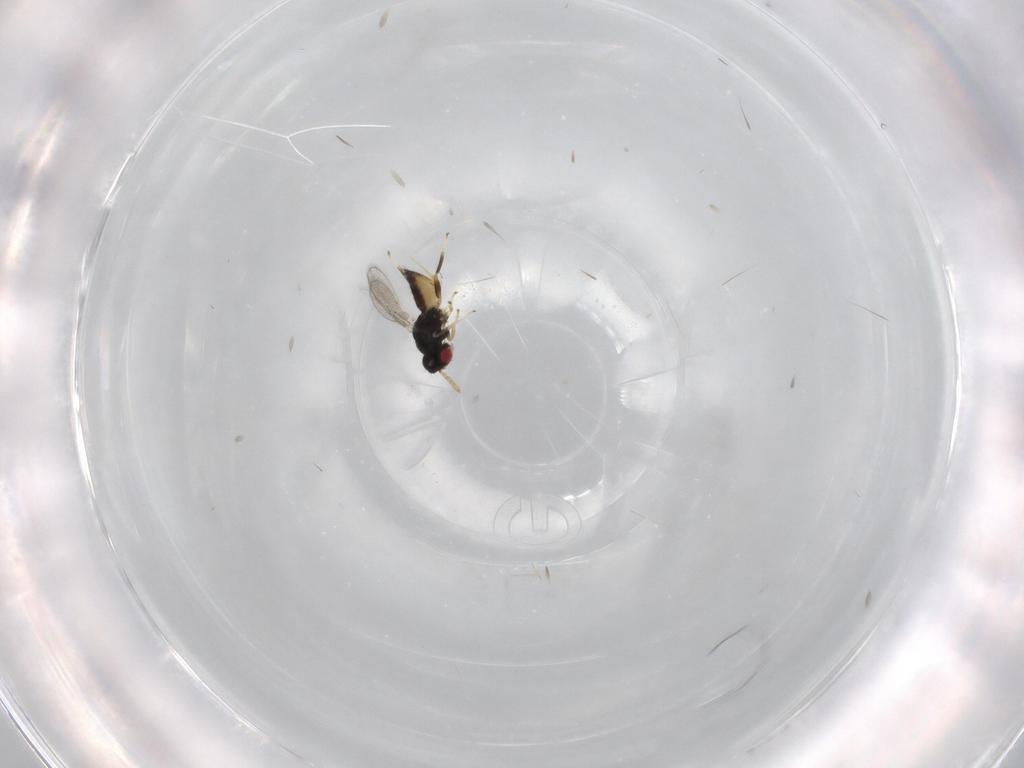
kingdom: Animalia
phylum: Arthropoda
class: Insecta
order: Hymenoptera
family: Eulophidae
